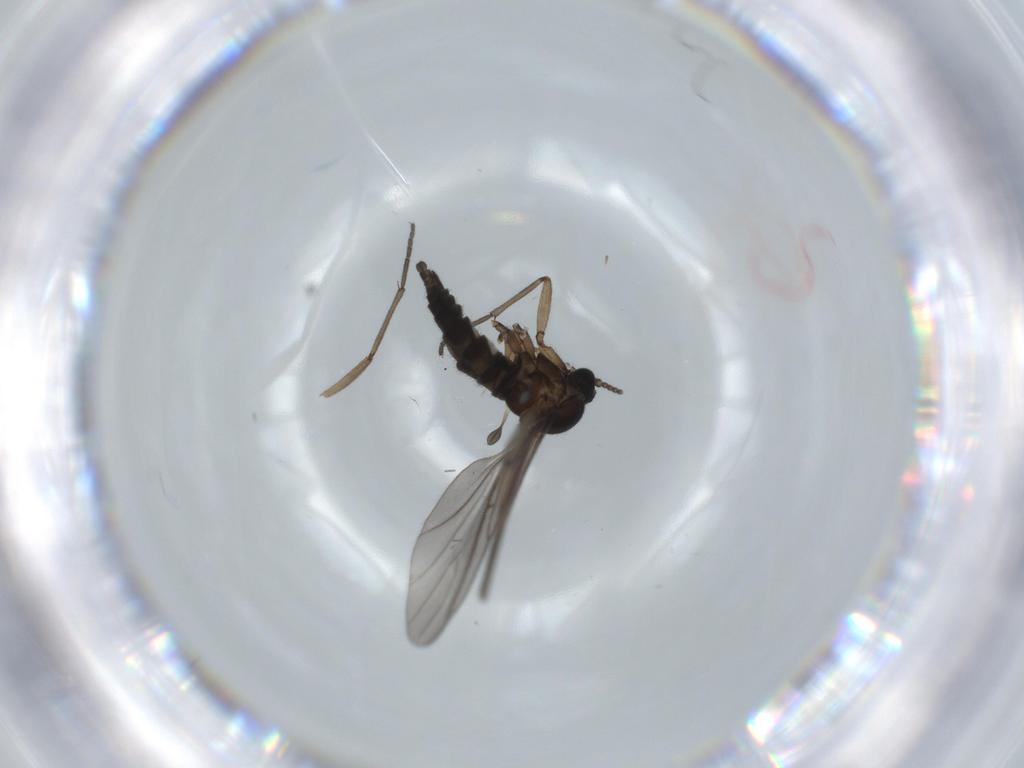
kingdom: Animalia
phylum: Arthropoda
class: Insecta
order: Diptera
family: Sciaridae
